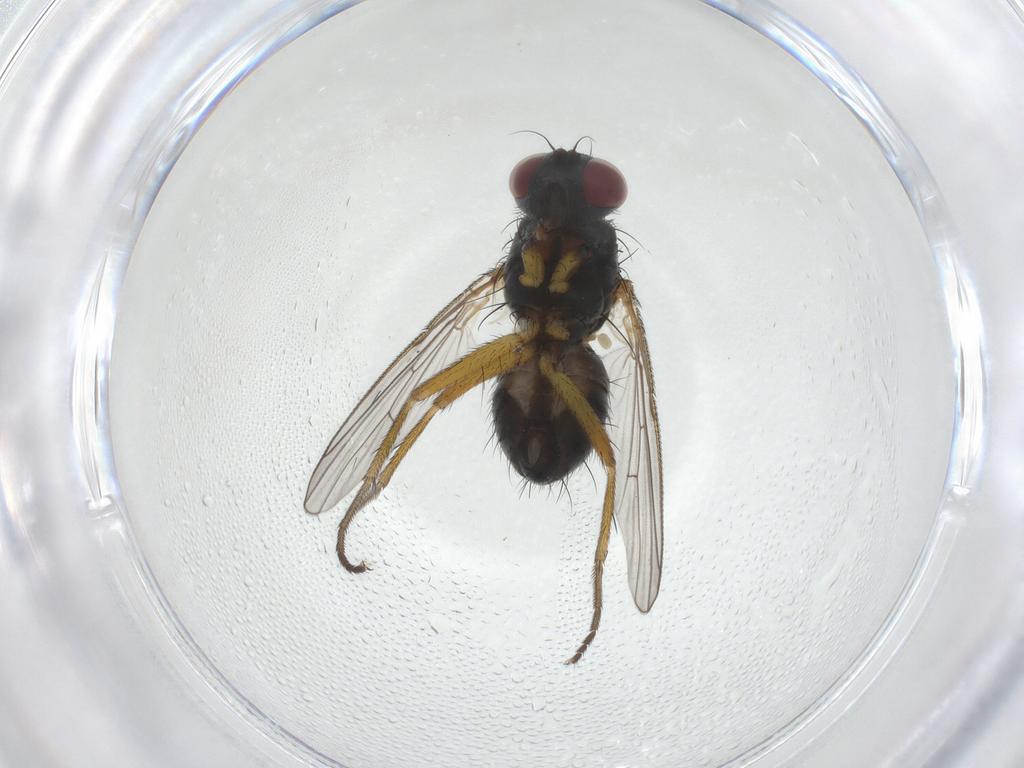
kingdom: Animalia
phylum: Arthropoda
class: Insecta
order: Diptera
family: Muscidae
